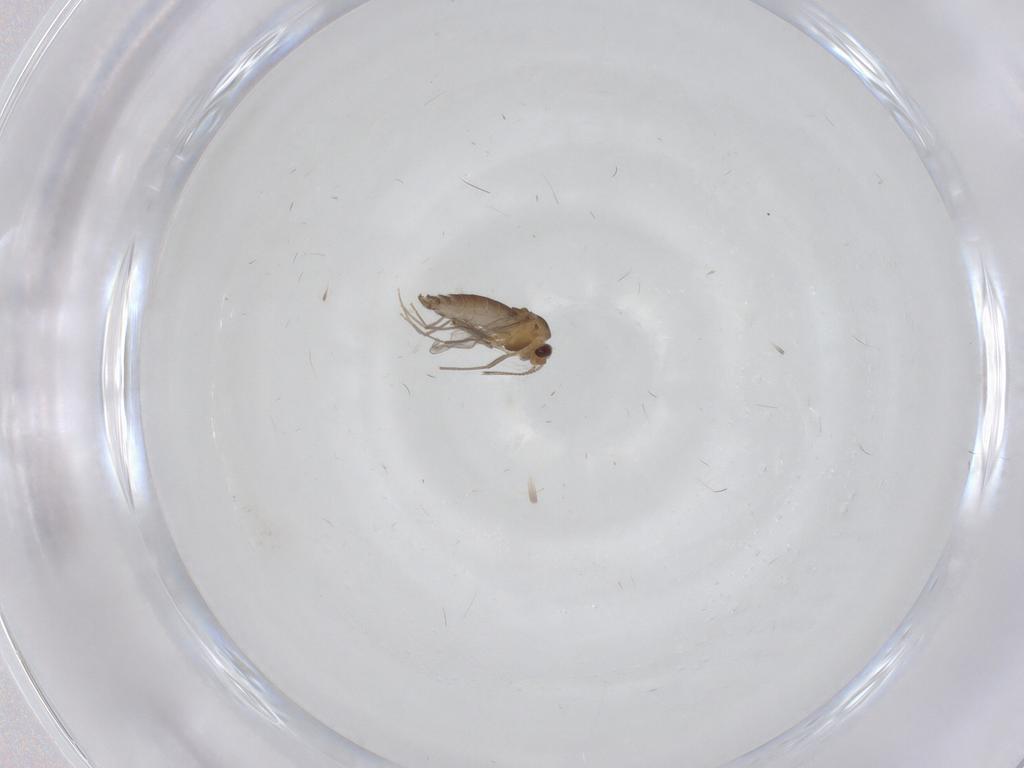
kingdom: Animalia
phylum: Arthropoda
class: Insecta
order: Diptera
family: Chironomidae
